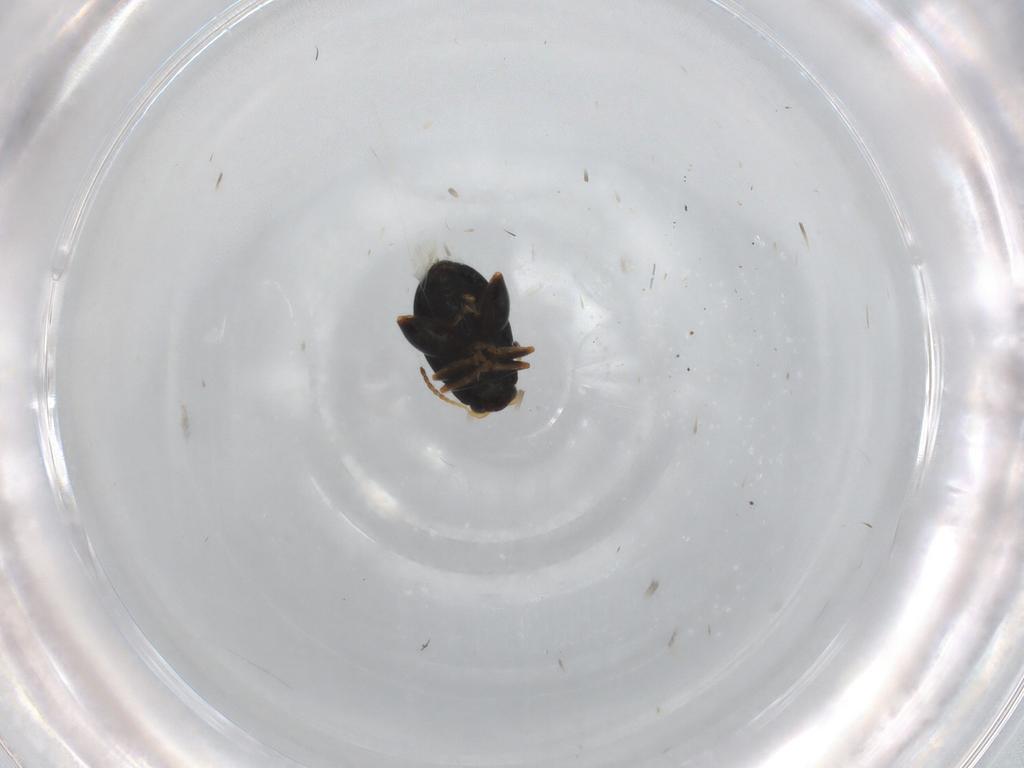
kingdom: Animalia
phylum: Arthropoda
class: Insecta
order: Coleoptera
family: Chrysomelidae
